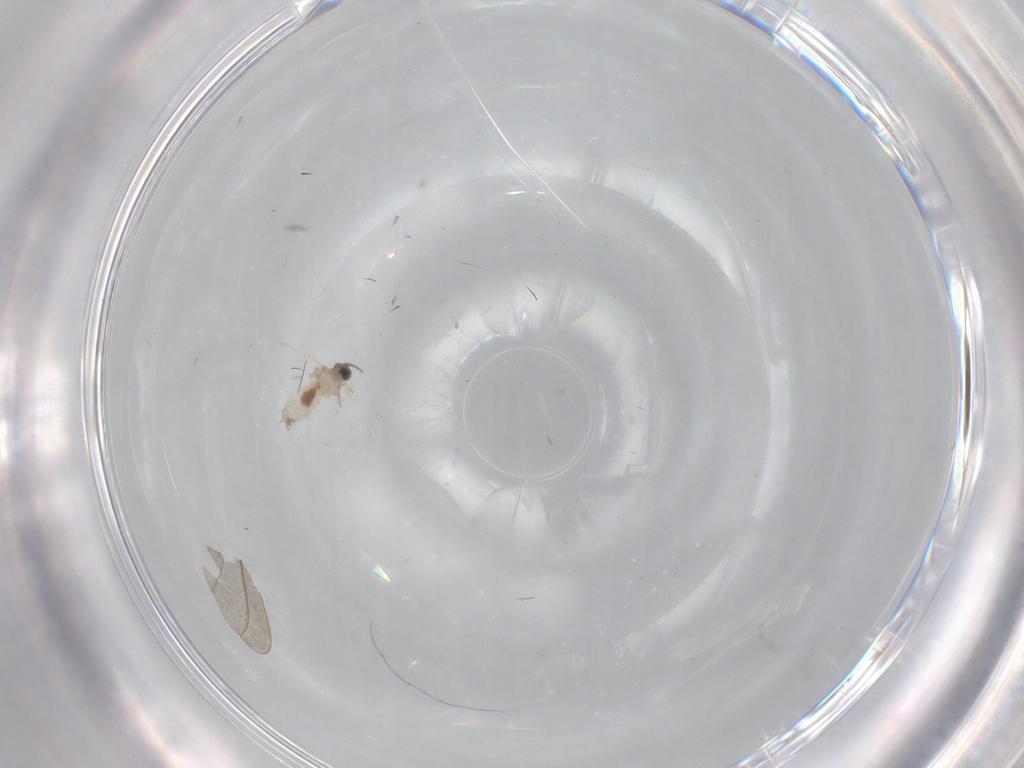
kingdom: Animalia
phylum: Arthropoda
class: Insecta
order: Diptera
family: Cecidomyiidae
